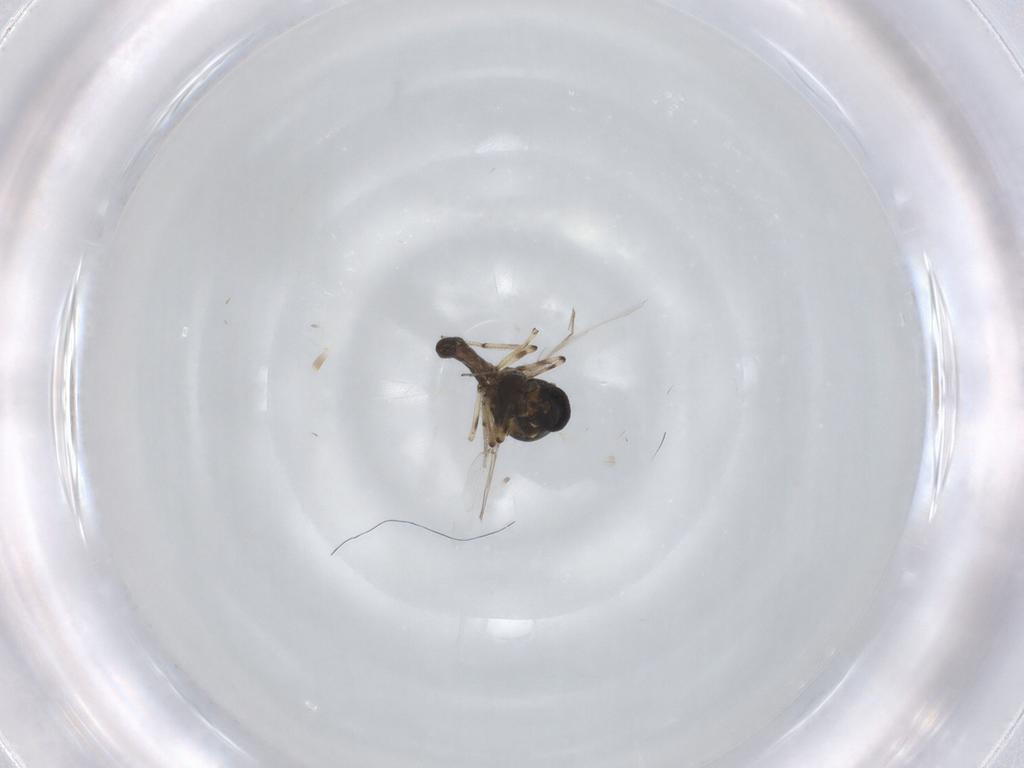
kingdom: Animalia
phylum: Arthropoda
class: Insecta
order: Diptera
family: Ceratopogonidae
